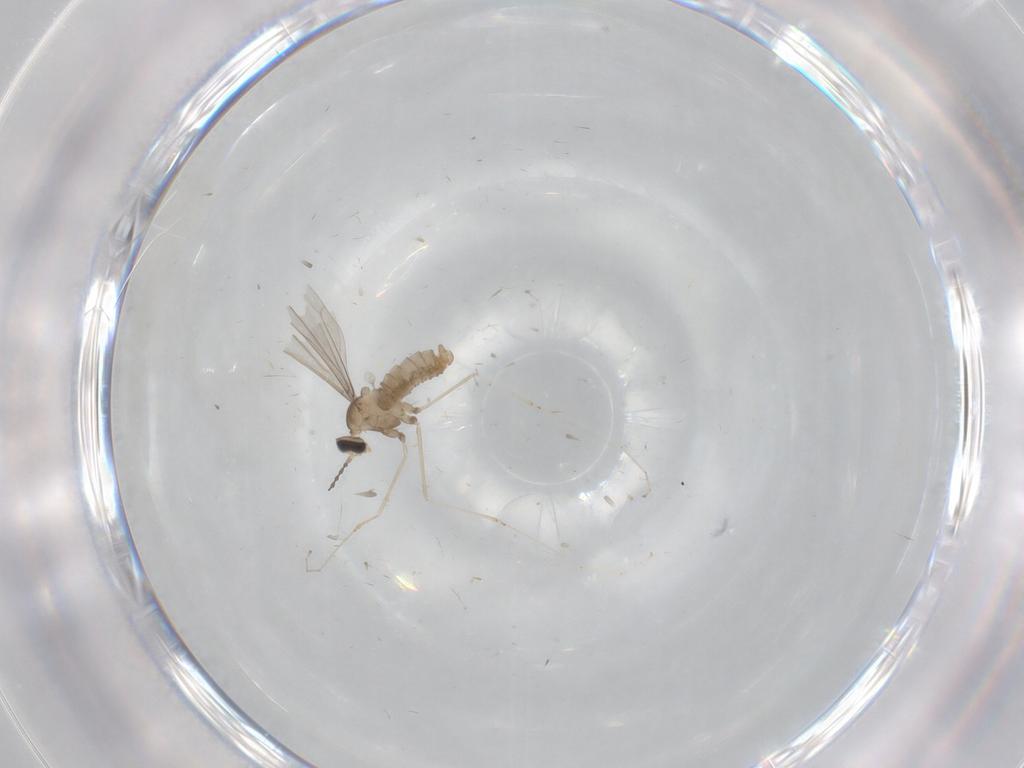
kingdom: Animalia
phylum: Arthropoda
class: Insecta
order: Diptera
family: Cecidomyiidae
